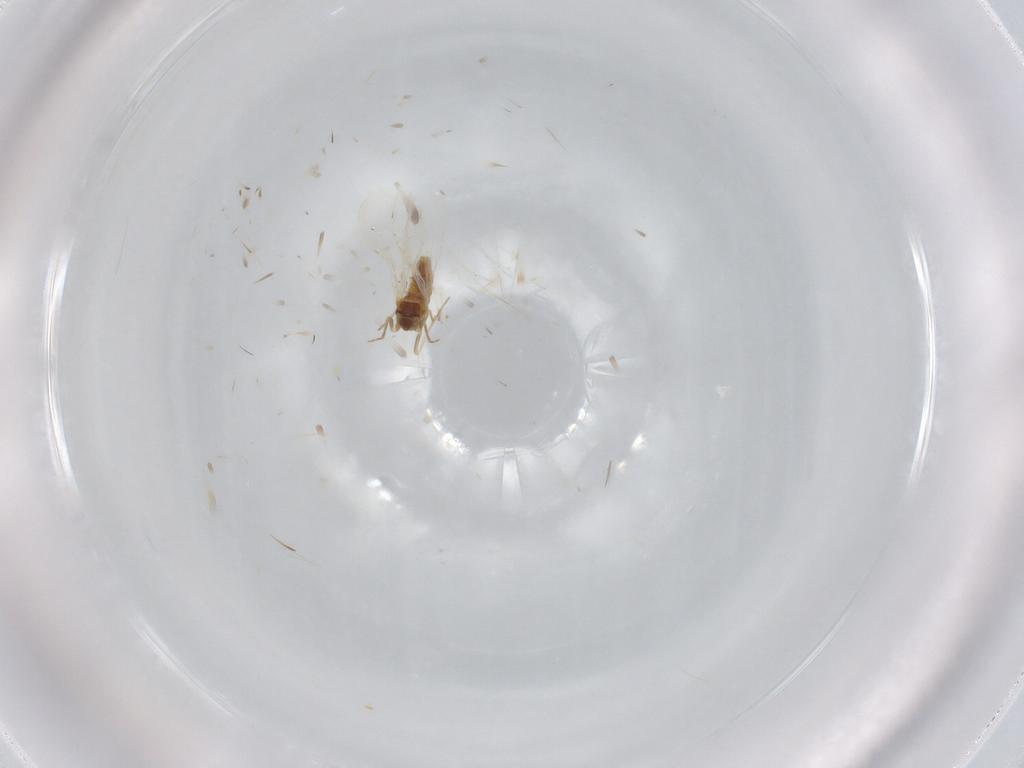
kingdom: Animalia
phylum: Arthropoda
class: Insecta
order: Hemiptera
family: Aleyrodidae
